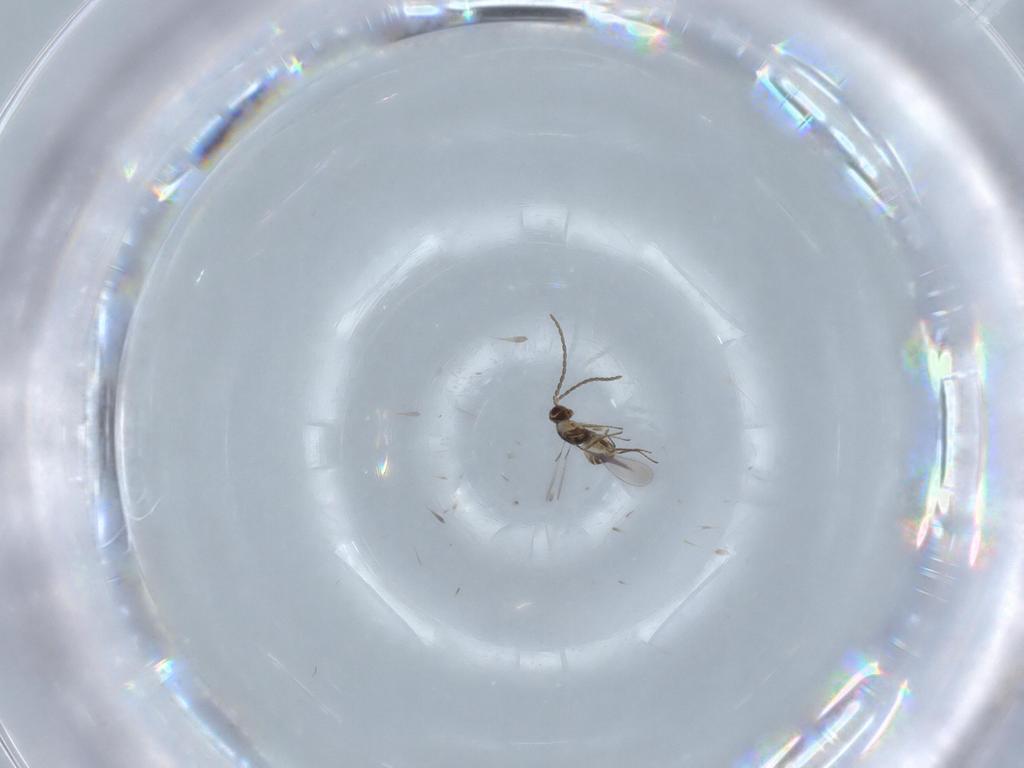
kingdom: Animalia
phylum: Arthropoda
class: Insecta
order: Hymenoptera
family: Mymaridae
